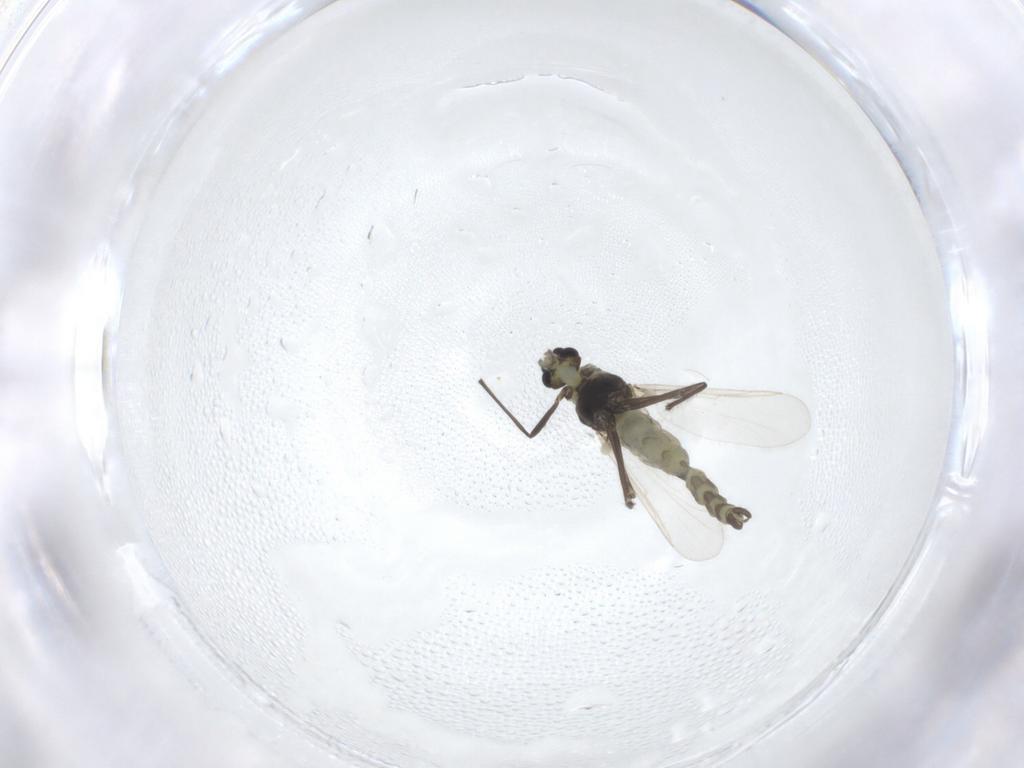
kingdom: Animalia
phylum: Arthropoda
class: Insecta
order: Diptera
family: Chironomidae
